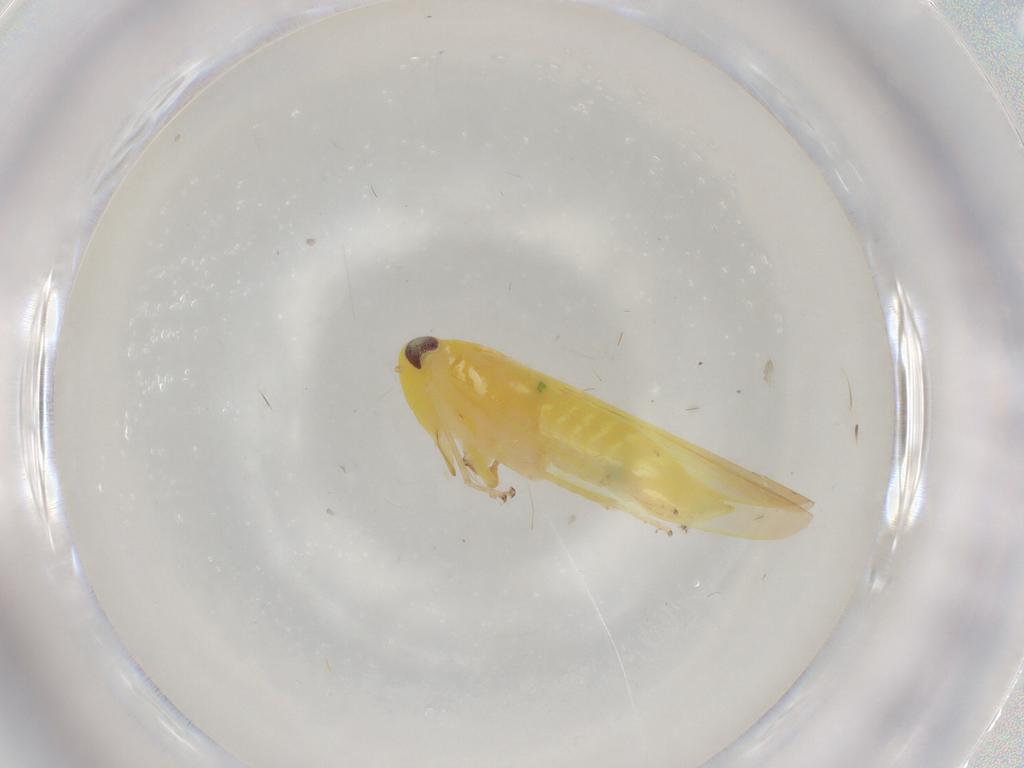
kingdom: Animalia
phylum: Arthropoda
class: Insecta
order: Hemiptera
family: Cicadellidae
